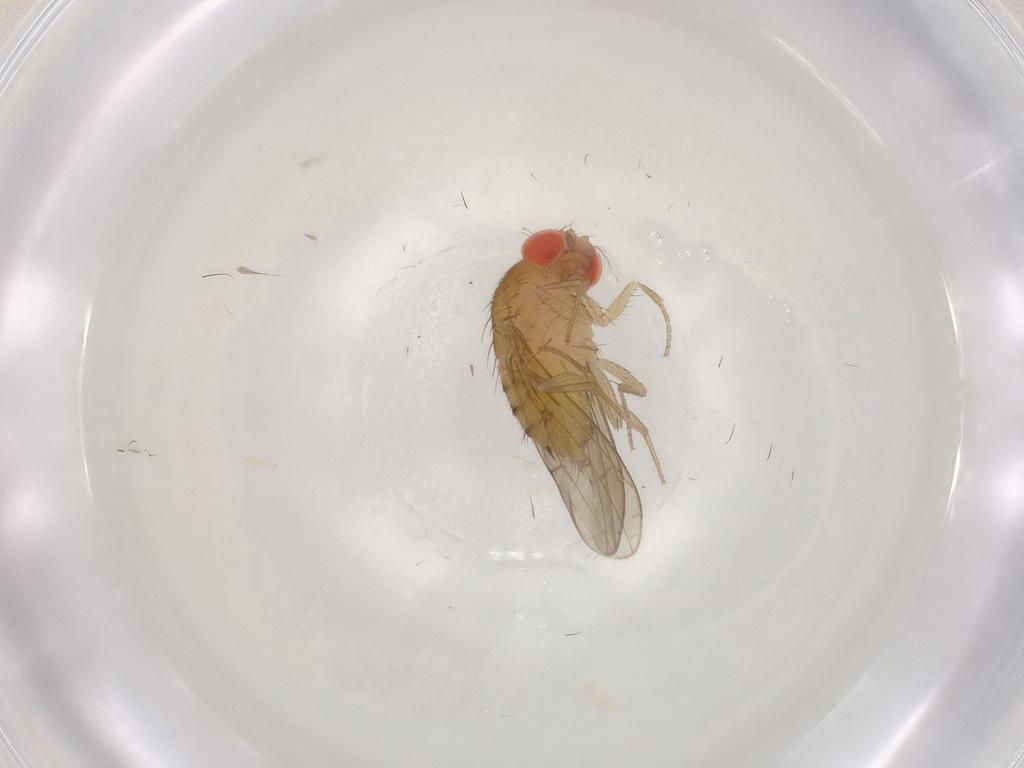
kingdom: Animalia
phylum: Arthropoda
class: Insecta
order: Diptera
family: Drosophilidae
